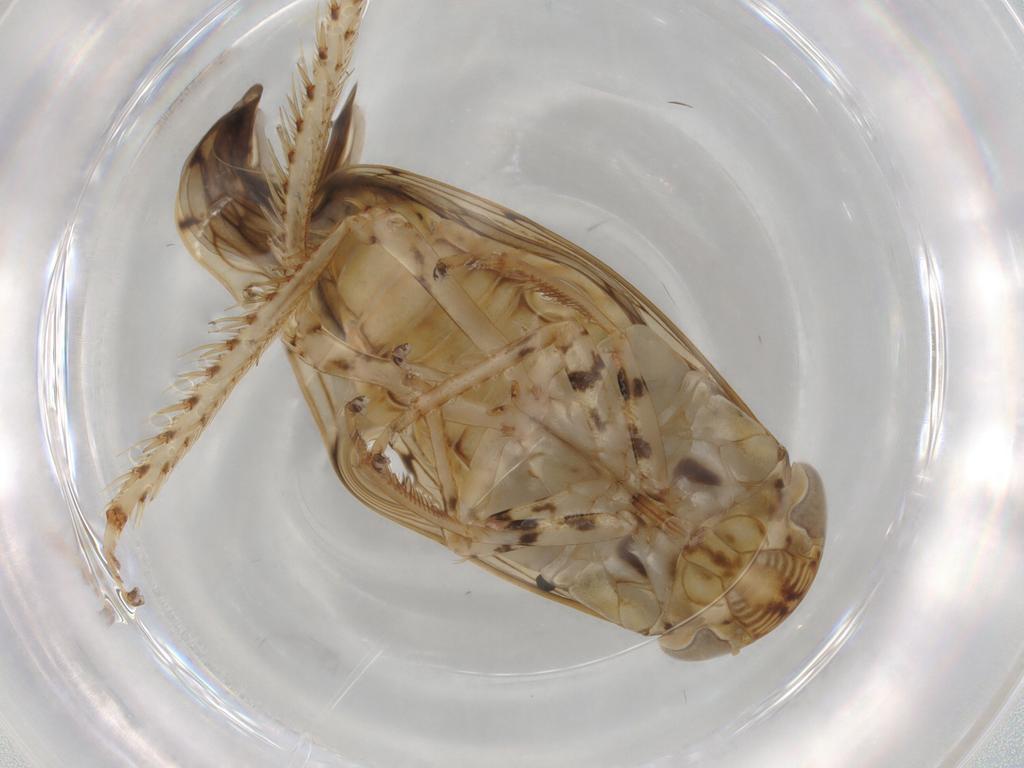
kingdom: Animalia
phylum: Arthropoda
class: Insecta
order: Hemiptera
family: Cicadellidae
